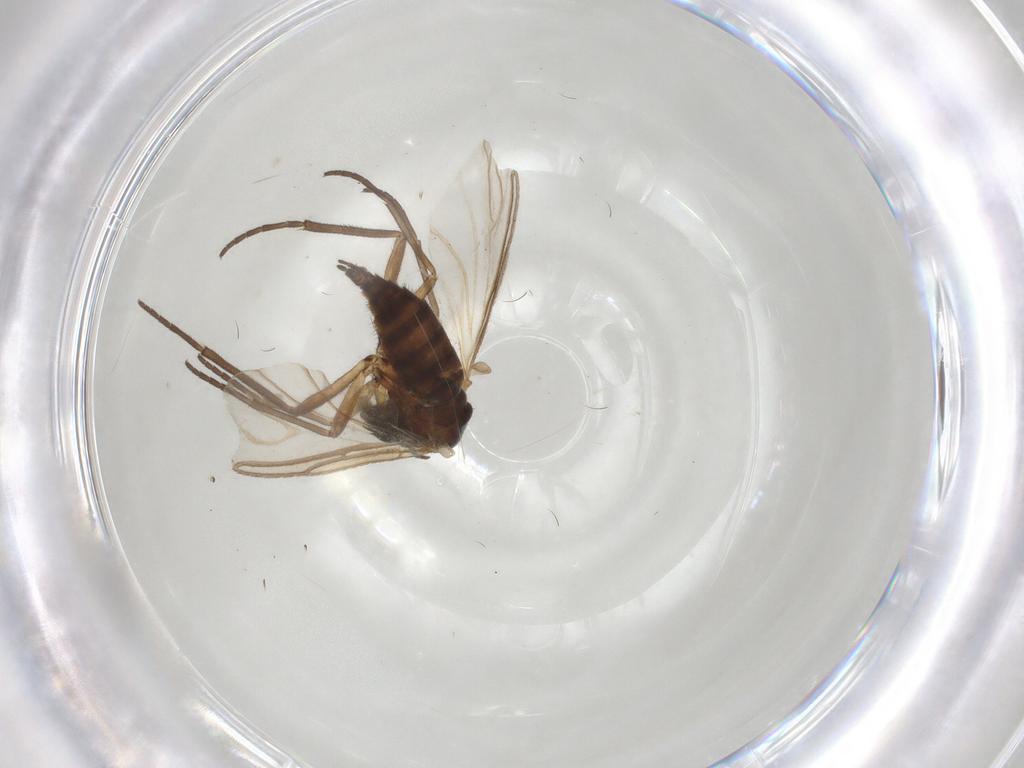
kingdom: Animalia
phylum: Arthropoda
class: Insecta
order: Diptera
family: Sciaridae
